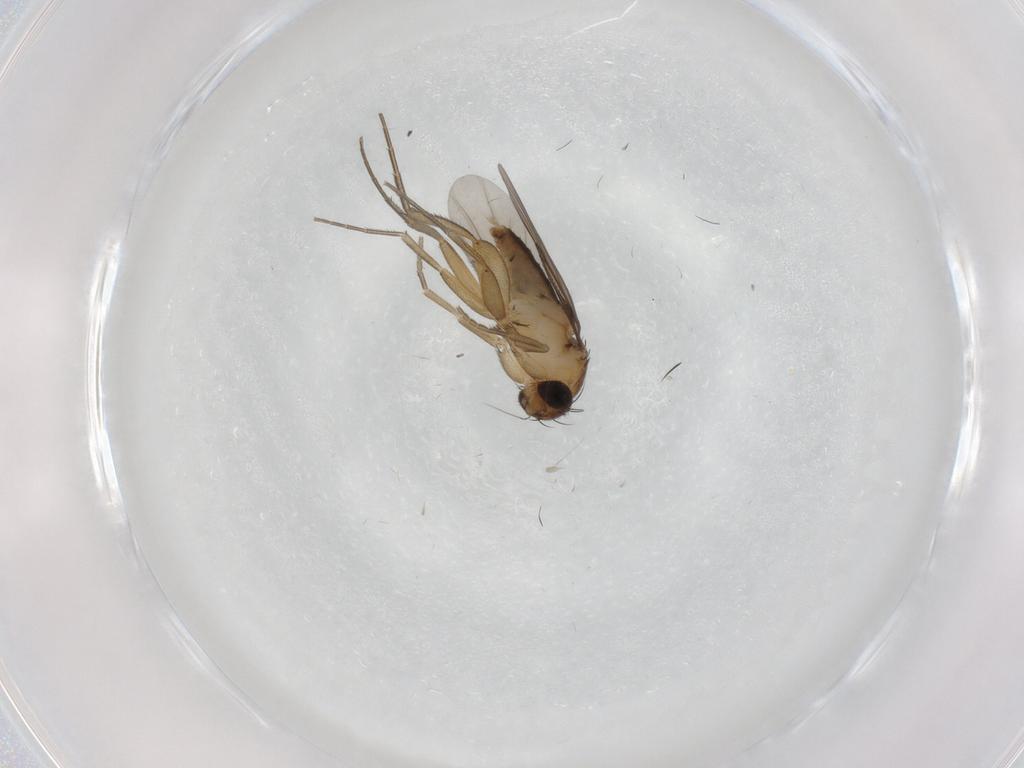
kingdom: Animalia
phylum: Arthropoda
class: Insecta
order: Diptera
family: Phoridae
